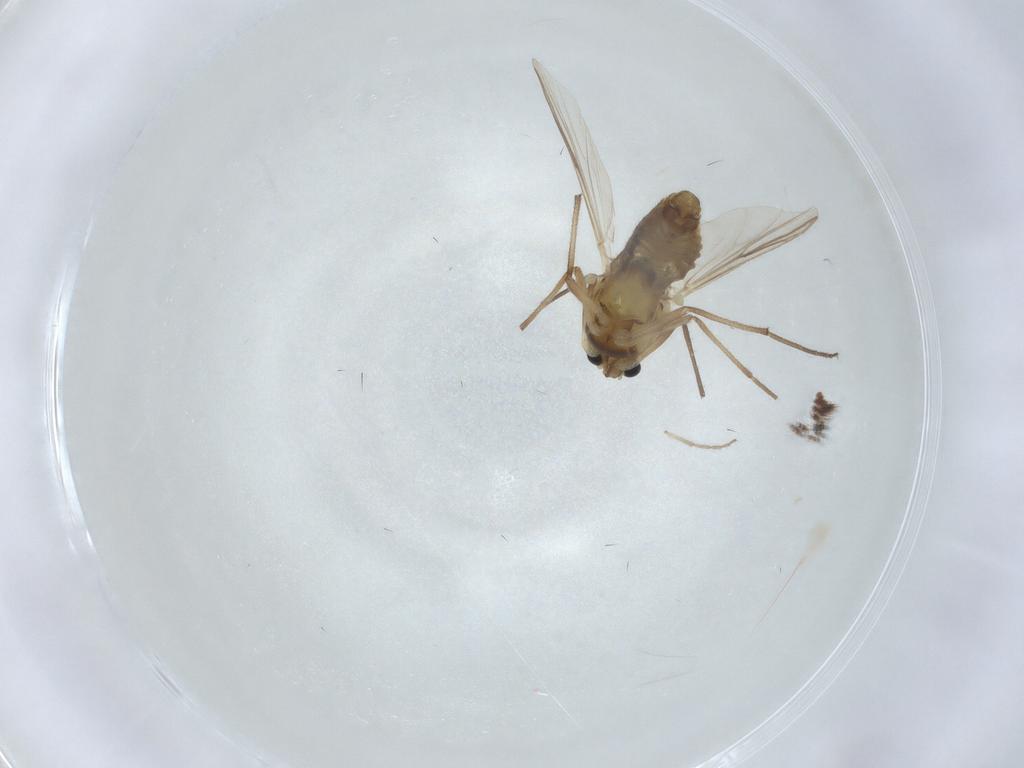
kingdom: Animalia
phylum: Arthropoda
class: Insecta
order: Diptera
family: Chironomidae
